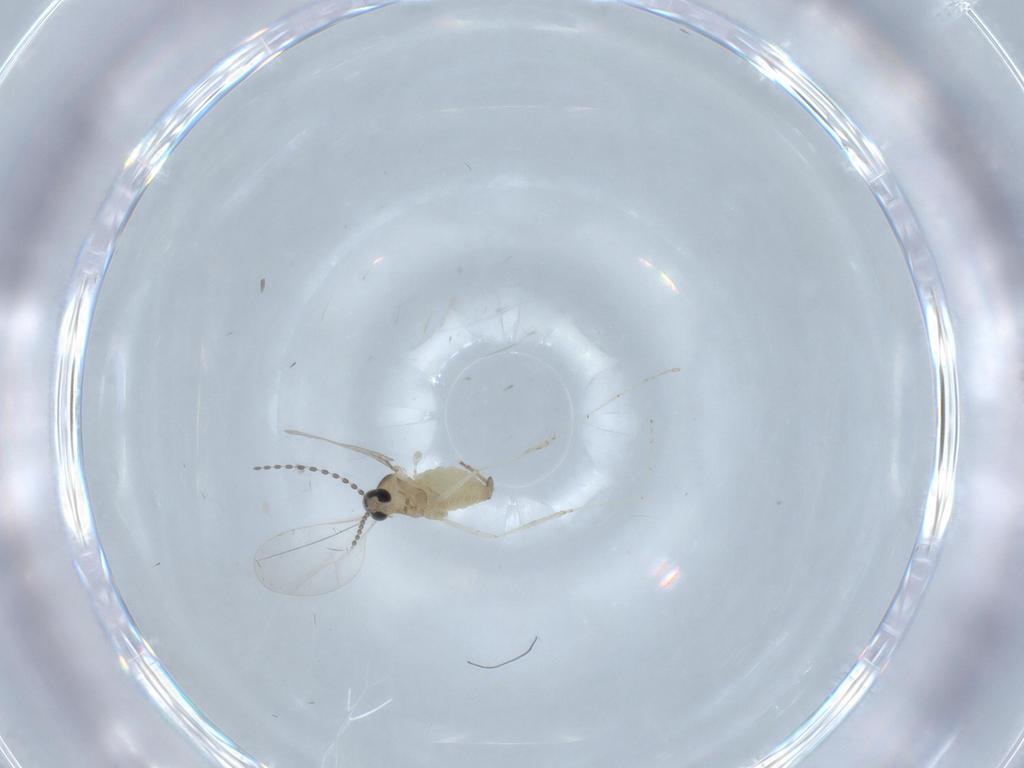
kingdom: Animalia
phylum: Arthropoda
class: Insecta
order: Diptera
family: Cecidomyiidae
